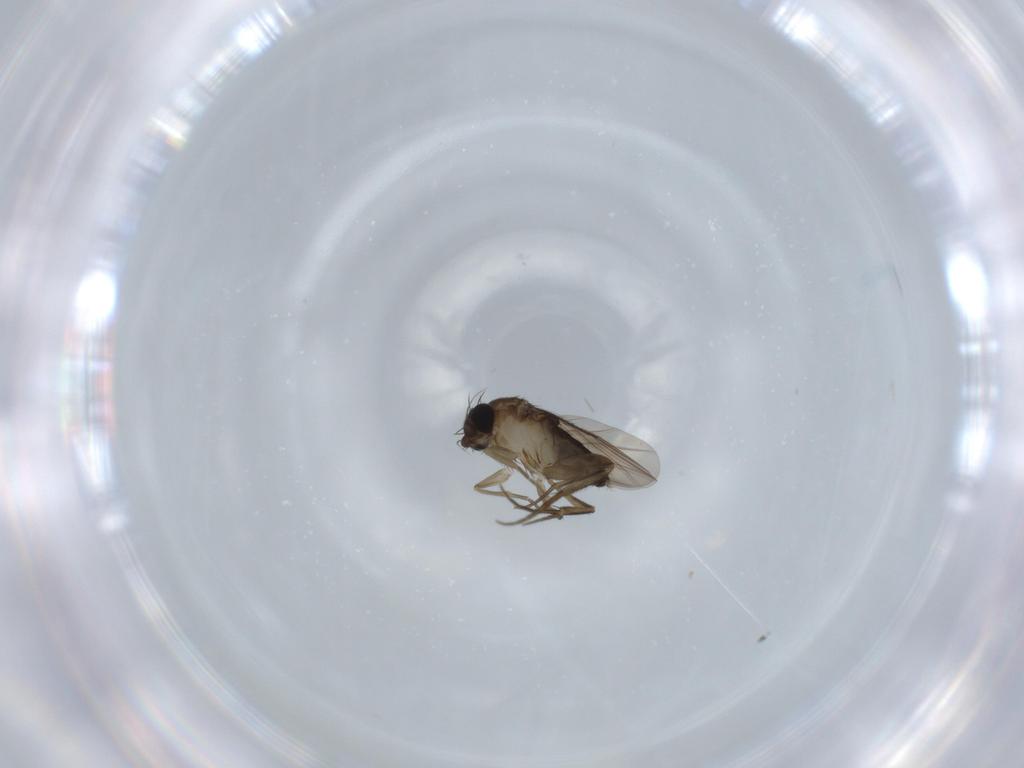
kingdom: Animalia
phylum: Arthropoda
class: Insecta
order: Diptera
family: Phoridae
